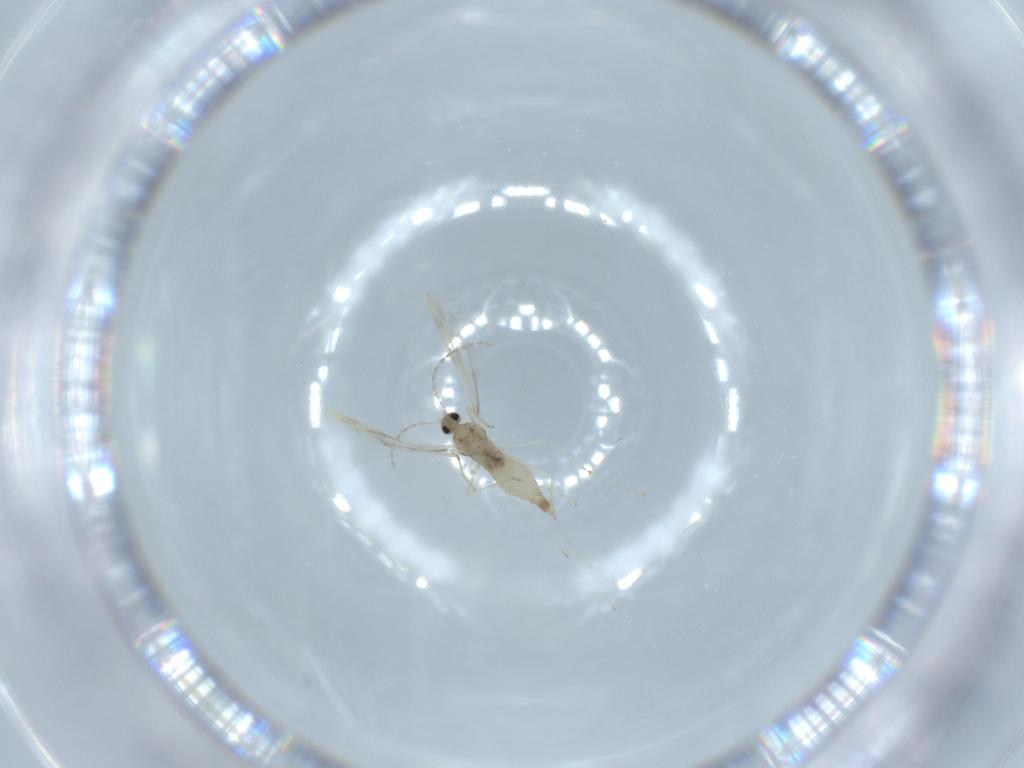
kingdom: Animalia
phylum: Arthropoda
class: Insecta
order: Diptera
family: Cecidomyiidae
